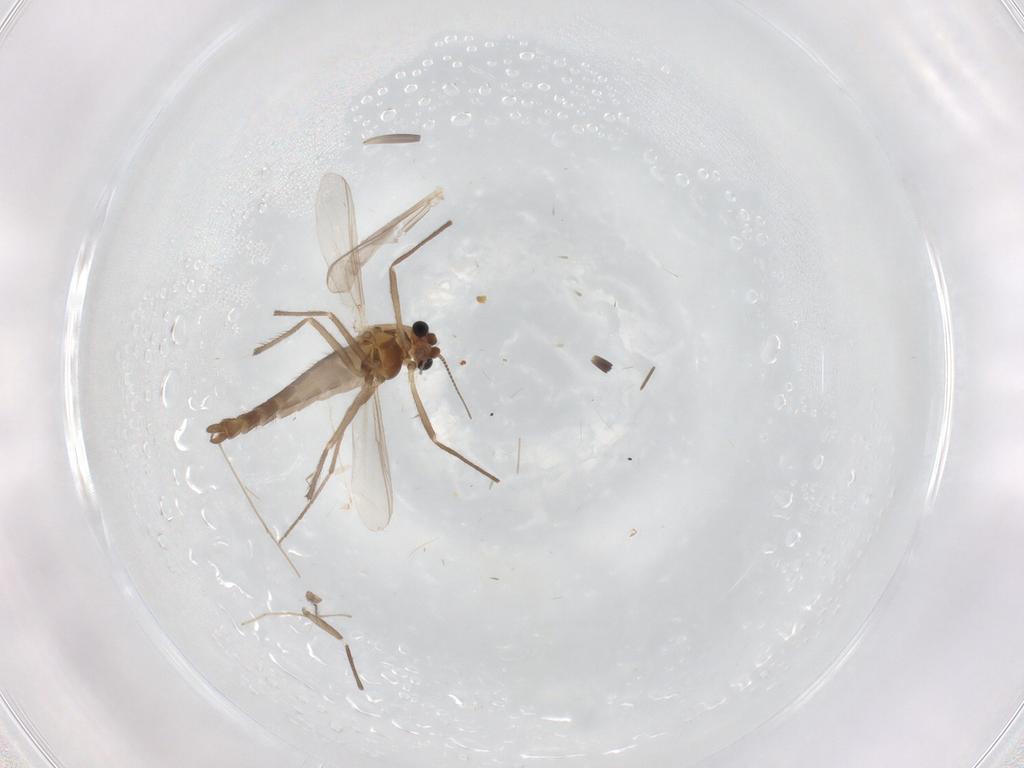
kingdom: Animalia
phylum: Arthropoda
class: Insecta
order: Diptera
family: Chironomidae
